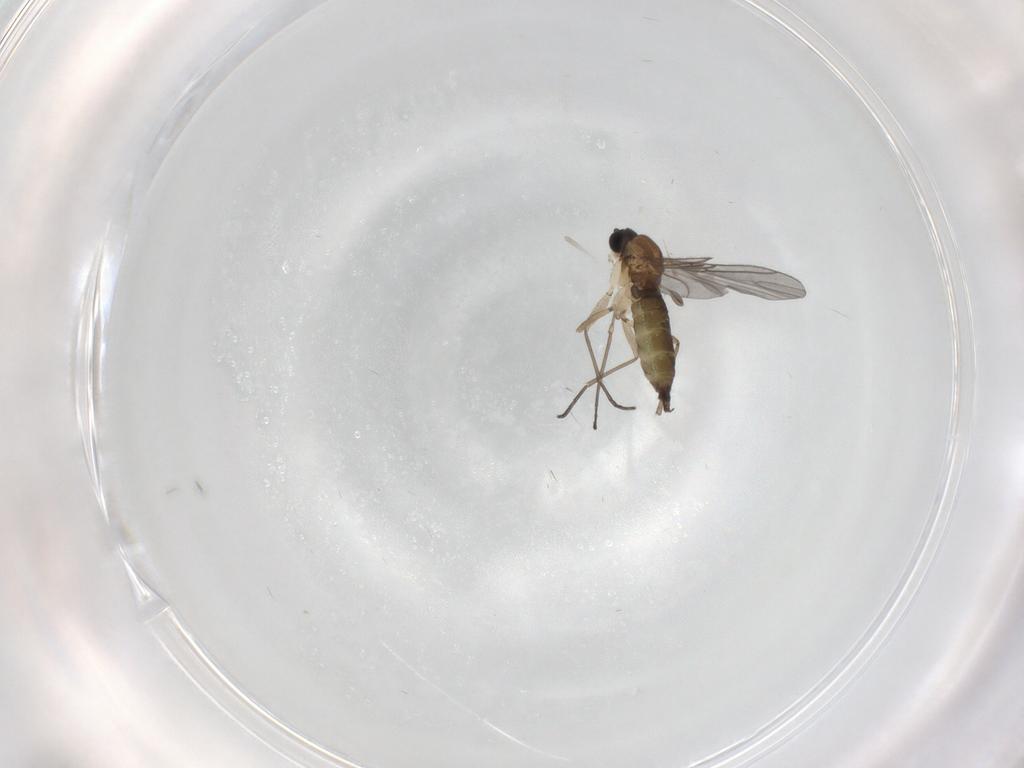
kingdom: Animalia
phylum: Arthropoda
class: Insecta
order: Diptera
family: Sciaridae
